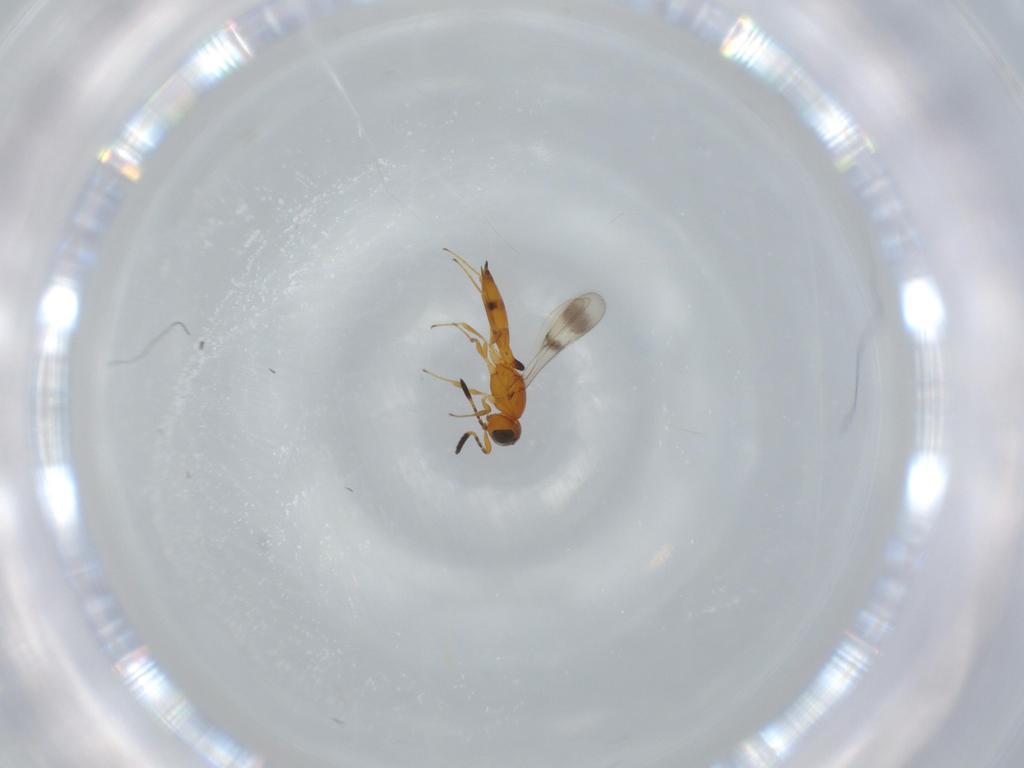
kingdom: Animalia
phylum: Arthropoda
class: Insecta
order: Hymenoptera
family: Scelionidae
